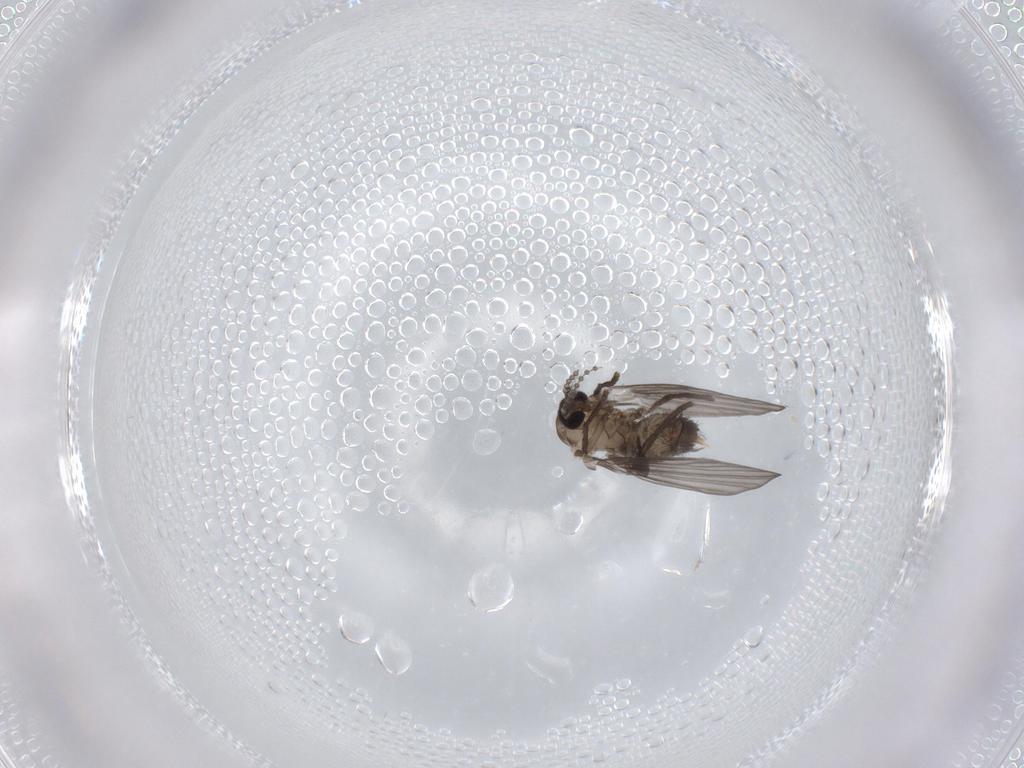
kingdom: Animalia
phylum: Arthropoda
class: Insecta
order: Diptera
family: Psychodidae
